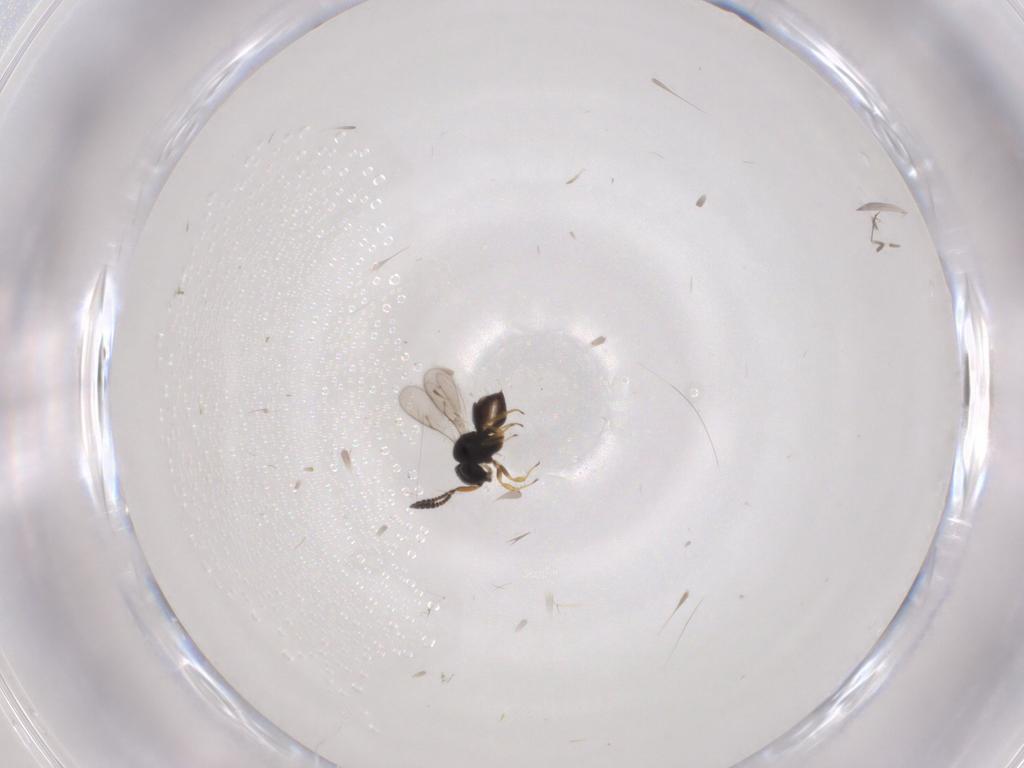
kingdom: Animalia
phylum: Arthropoda
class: Insecta
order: Hymenoptera
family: Scelionidae
